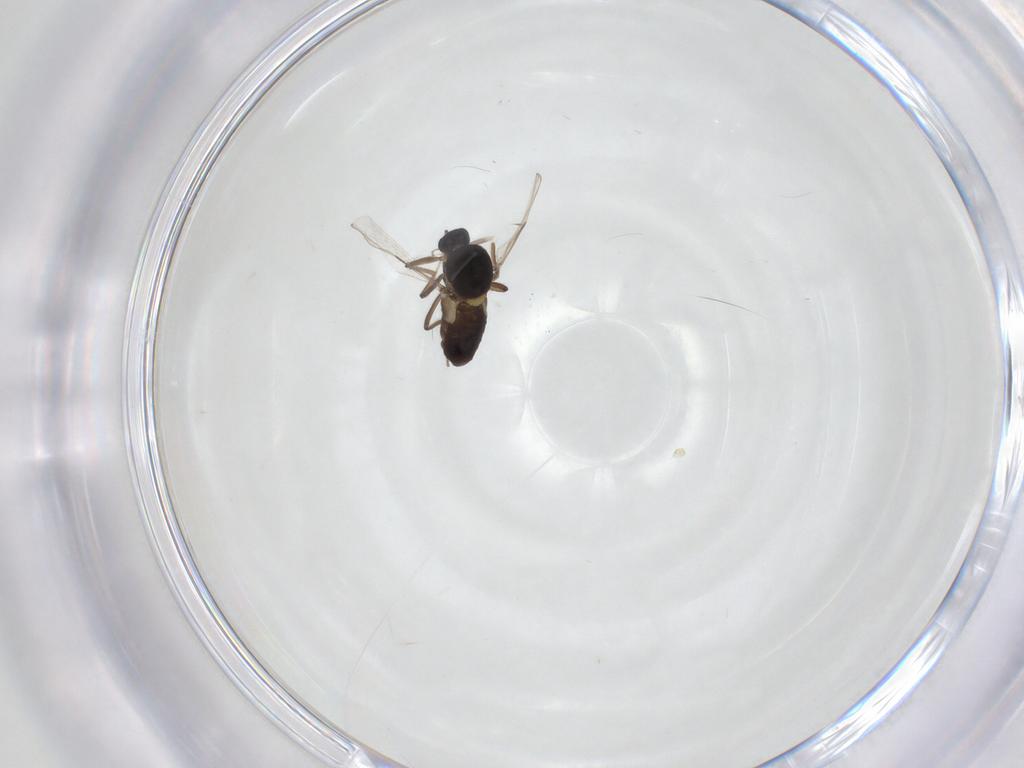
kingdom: Animalia
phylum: Arthropoda
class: Insecta
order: Diptera
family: Ceratopogonidae
